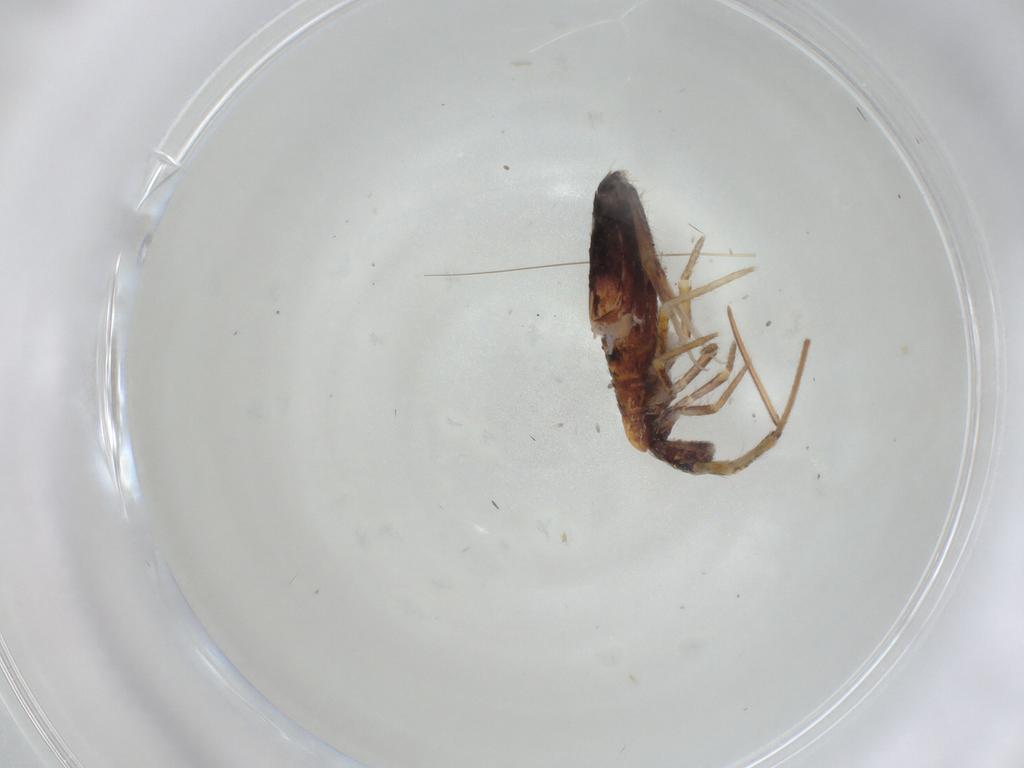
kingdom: Animalia
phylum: Arthropoda
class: Collembola
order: Entomobryomorpha
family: Entomobryidae
